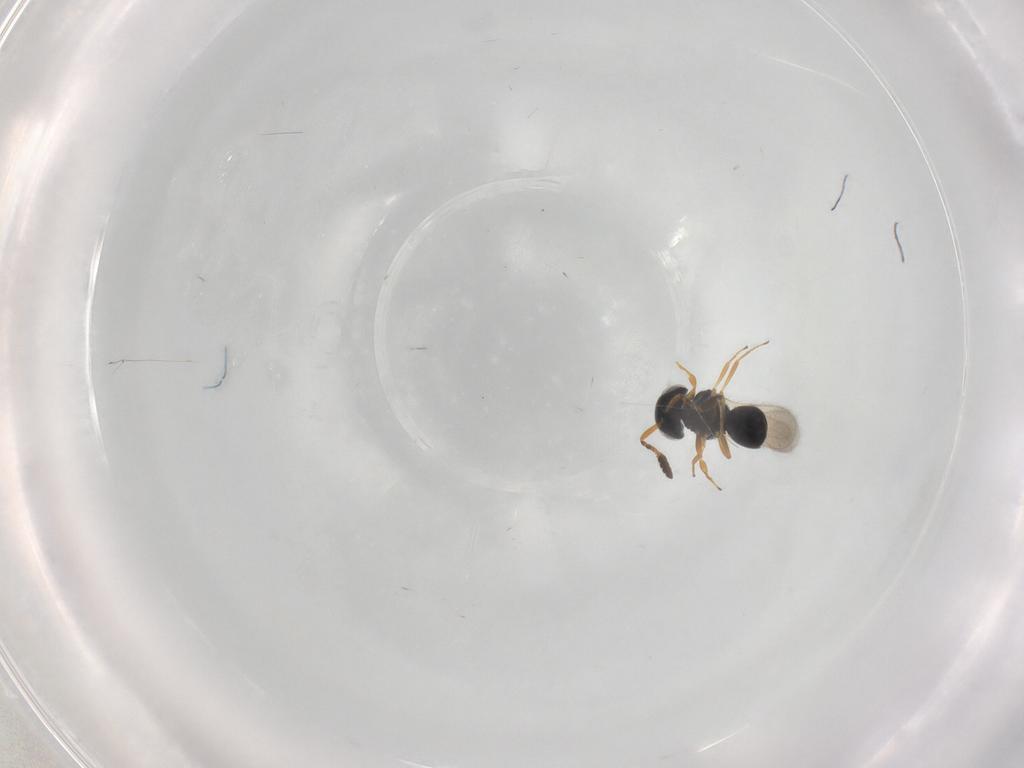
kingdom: Animalia
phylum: Arthropoda
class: Insecta
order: Hymenoptera
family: Scelionidae
